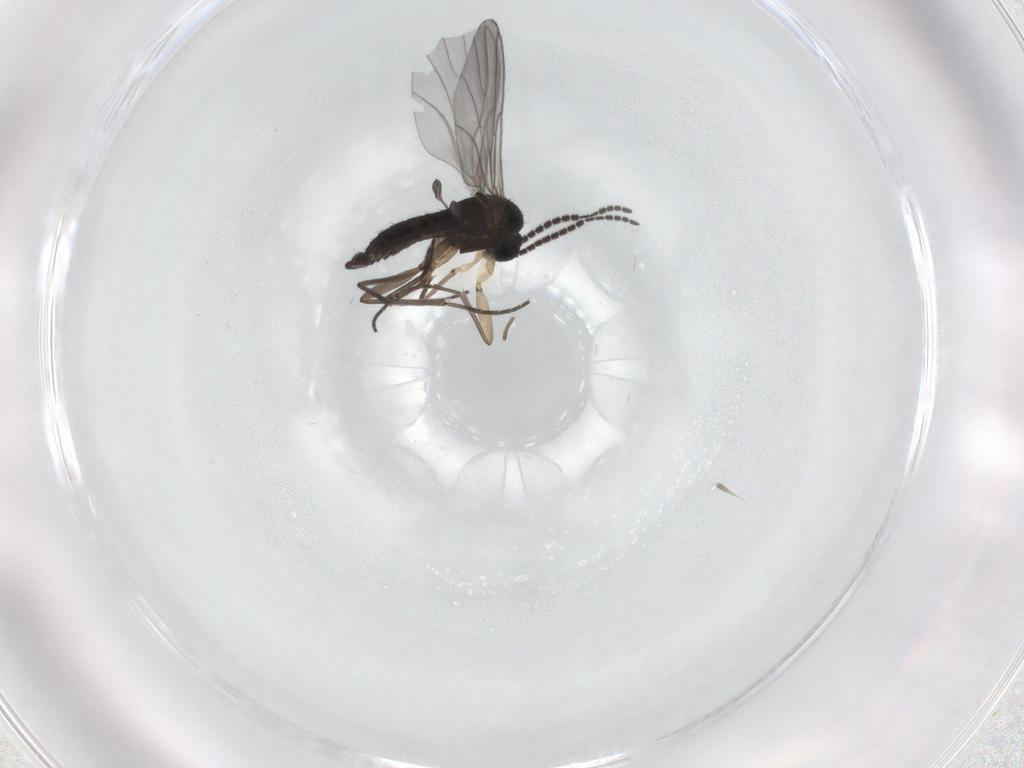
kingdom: Animalia
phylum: Arthropoda
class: Insecta
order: Diptera
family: Sciaridae
